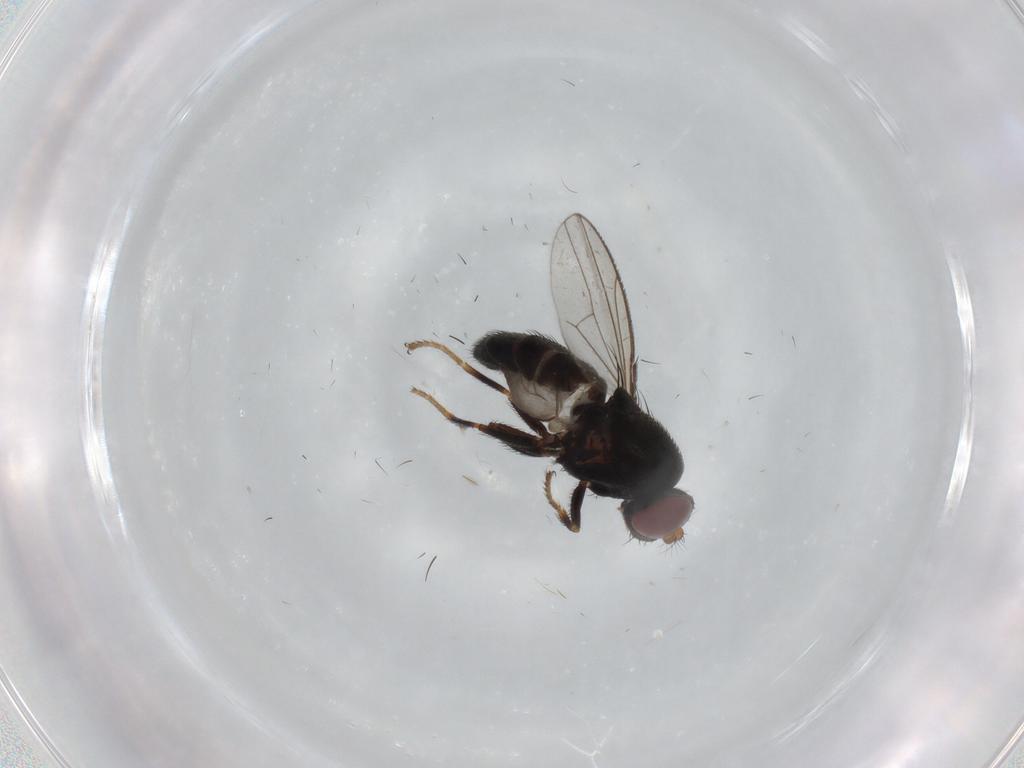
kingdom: Animalia
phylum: Arthropoda
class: Insecta
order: Diptera
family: Ephydridae
